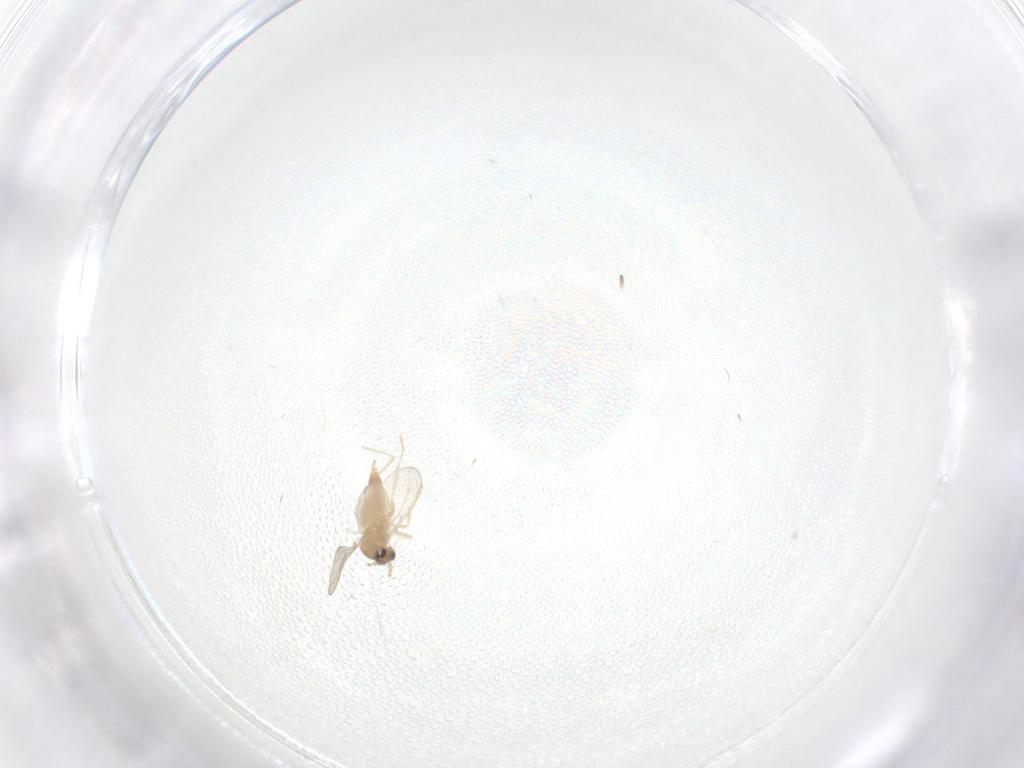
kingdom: Animalia
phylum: Arthropoda
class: Insecta
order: Diptera
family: Cecidomyiidae
